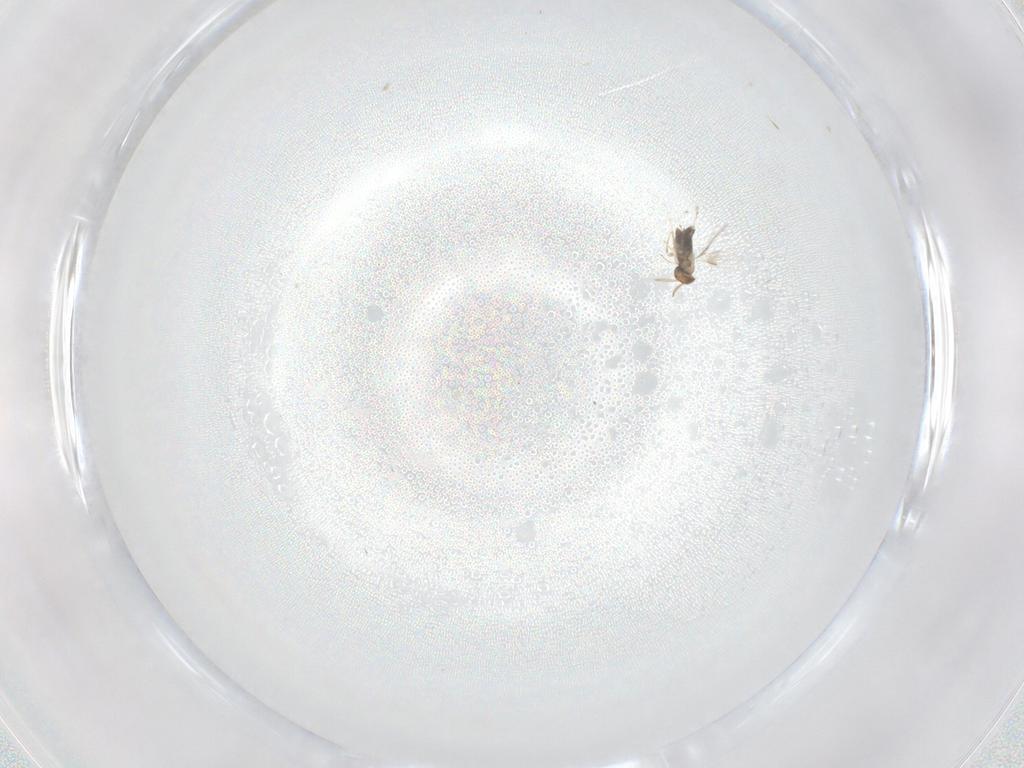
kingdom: Animalia
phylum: Arthropoda
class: Insecta
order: Hymenoptera
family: Aphelinidae
